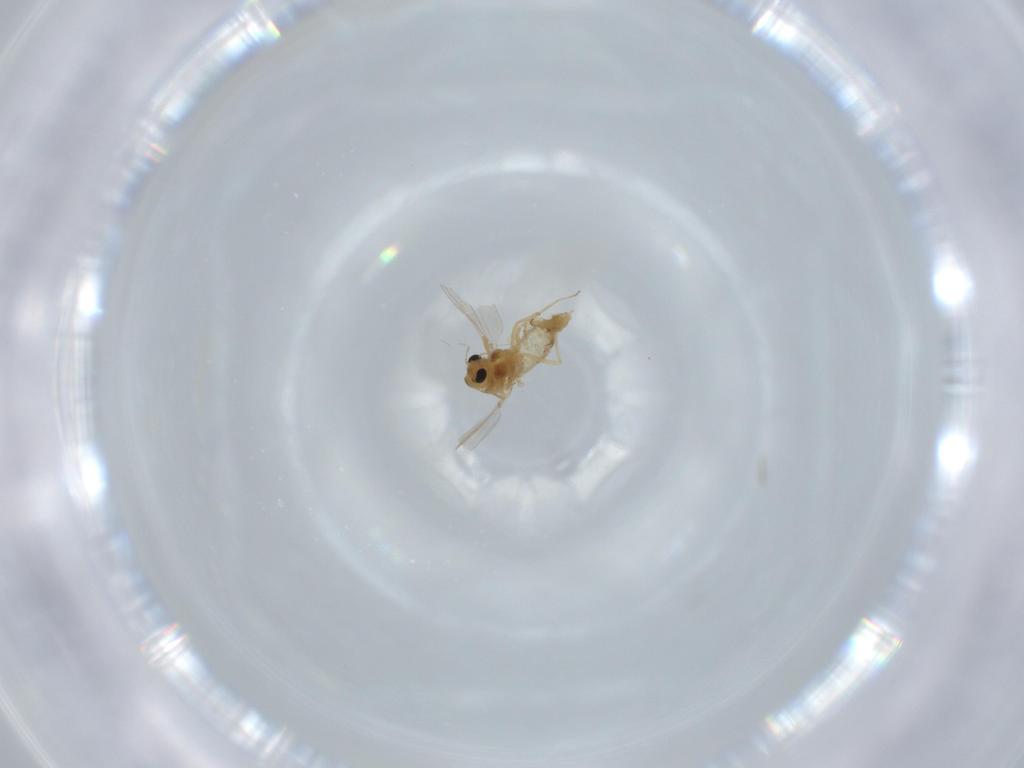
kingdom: Animalia
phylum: Arthropoda
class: Insecta
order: Diptera
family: Chironomidae
